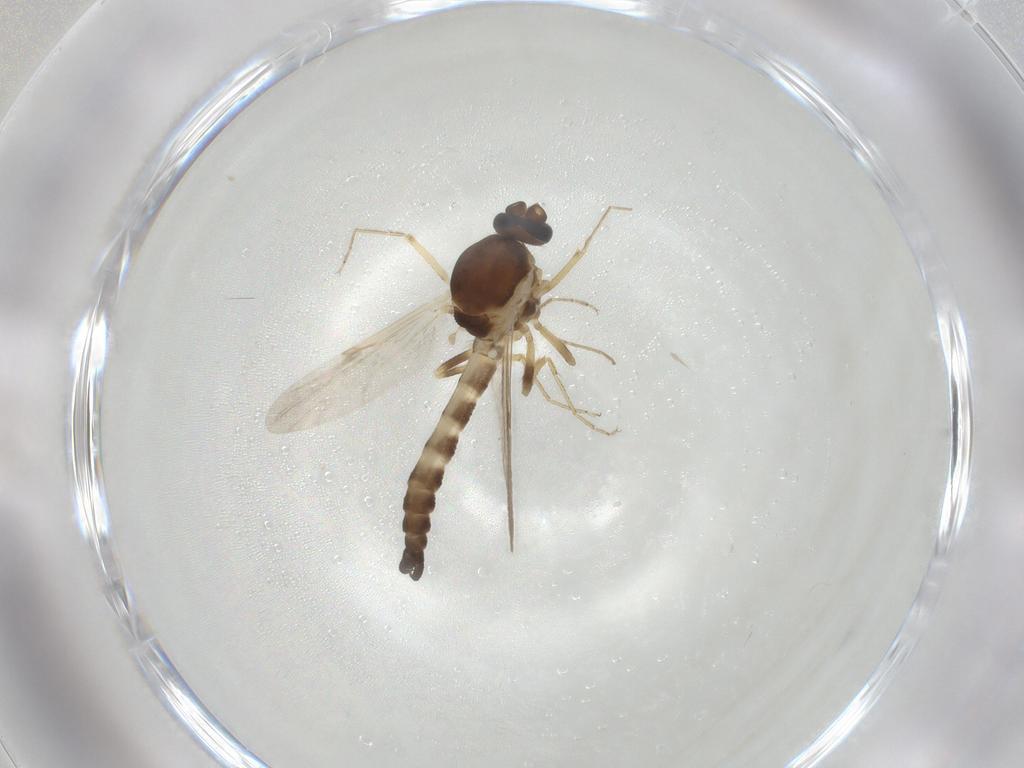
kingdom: Animalia
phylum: Arthropoda
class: Insecta
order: Diptera
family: Ceratopogonidae
